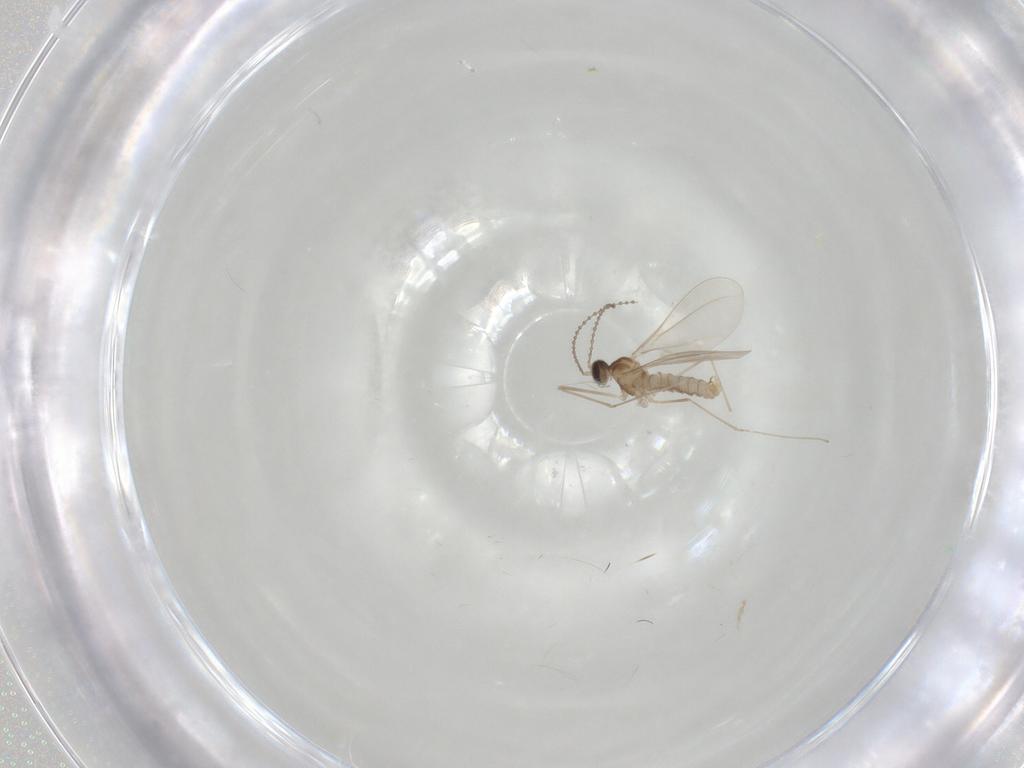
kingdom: Animalia
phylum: Arthropoda
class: Insecta
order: Diptera
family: Cecidomyiidae
